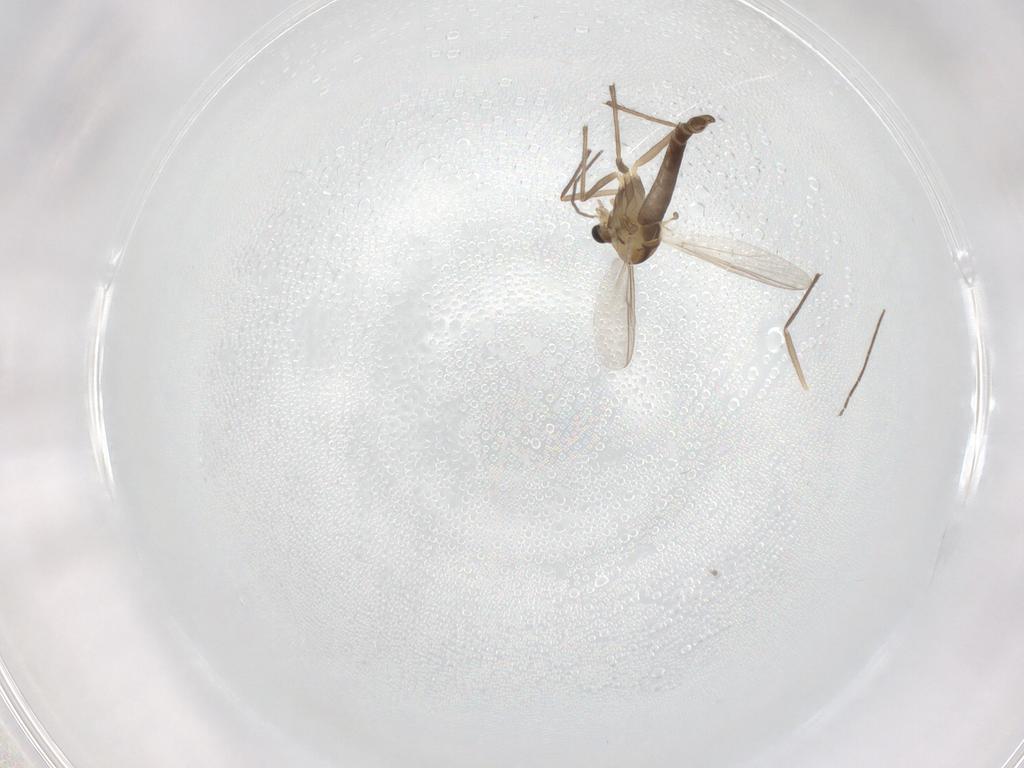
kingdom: Animalia
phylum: Arthropoda
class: Insecta
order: Diptera
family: Chironomidae
